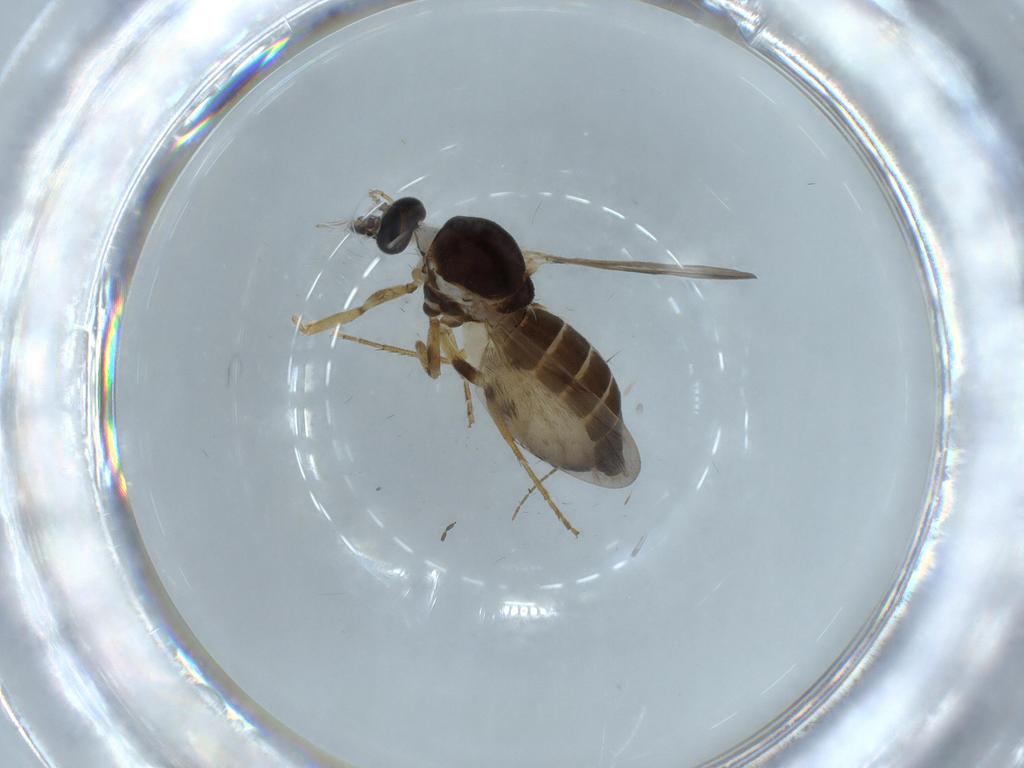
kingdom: Animalia
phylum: Arthropoda
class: Insecta
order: Diptera
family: Ceratopogonidae
